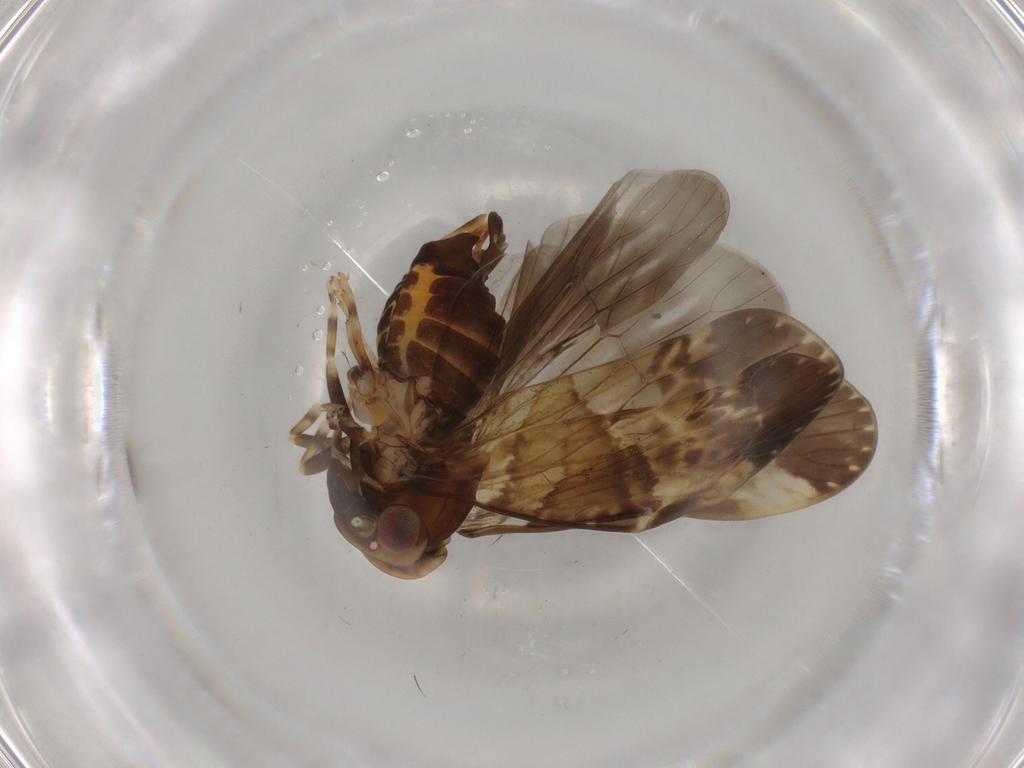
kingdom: Animalia
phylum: Arthropoda
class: Insecta
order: Hemiptera
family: Cixiidae
